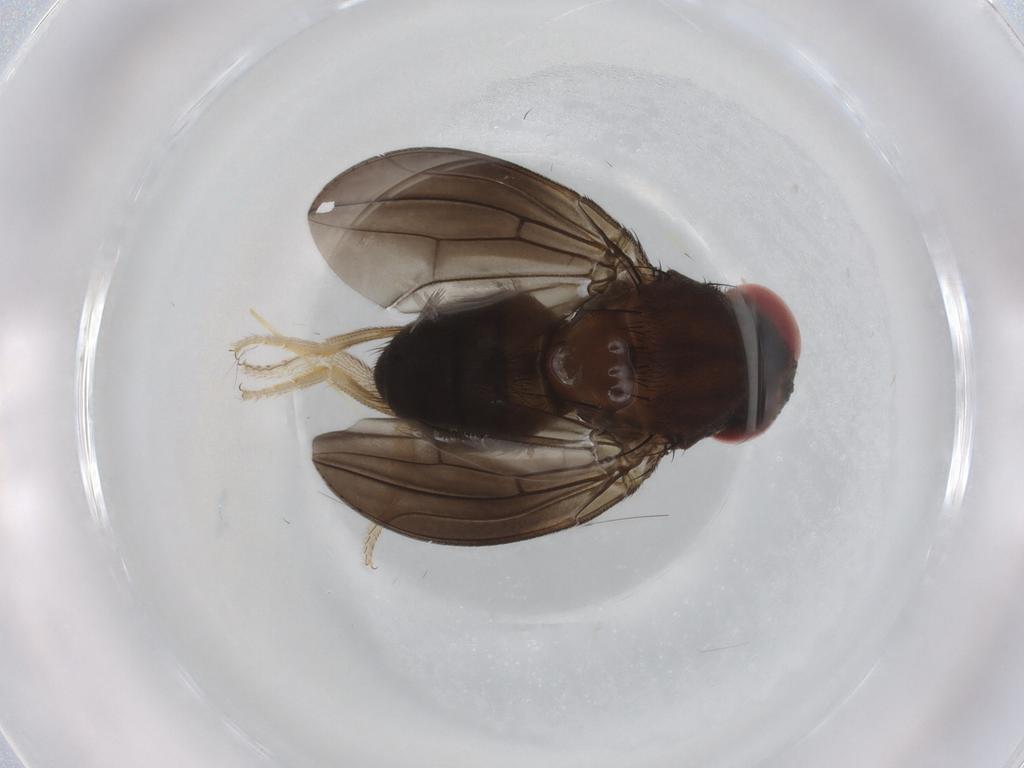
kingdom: Animalia
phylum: Arthropoda
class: Insecta
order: Diptera
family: Drosophilidae
